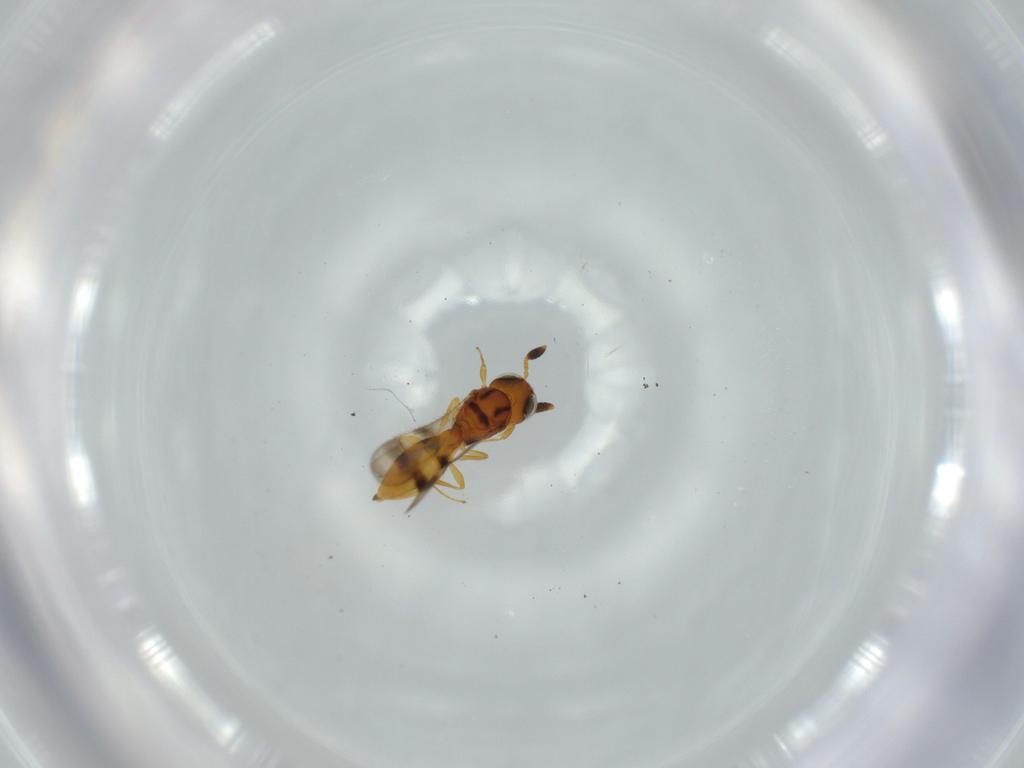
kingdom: Animalia
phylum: Arthropoda
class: Insecta
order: Hymenoptera
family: Scelionidae
